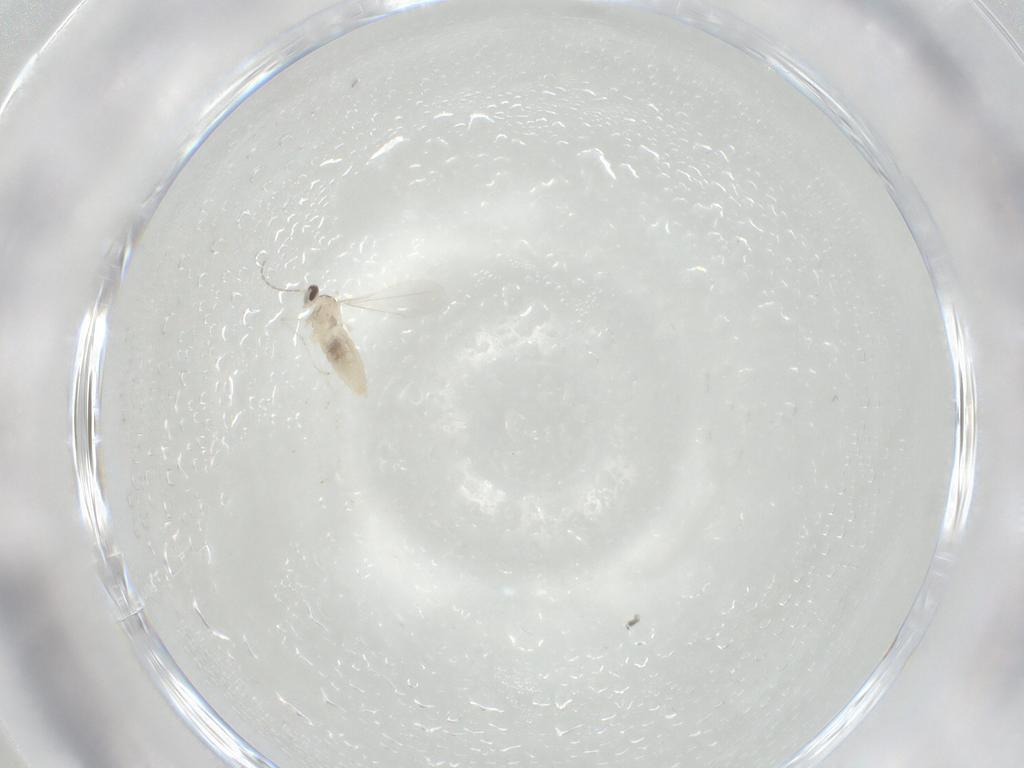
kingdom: Animalia
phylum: Arthropoda
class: Insecta
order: Diptera
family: Cecidomyiidae
